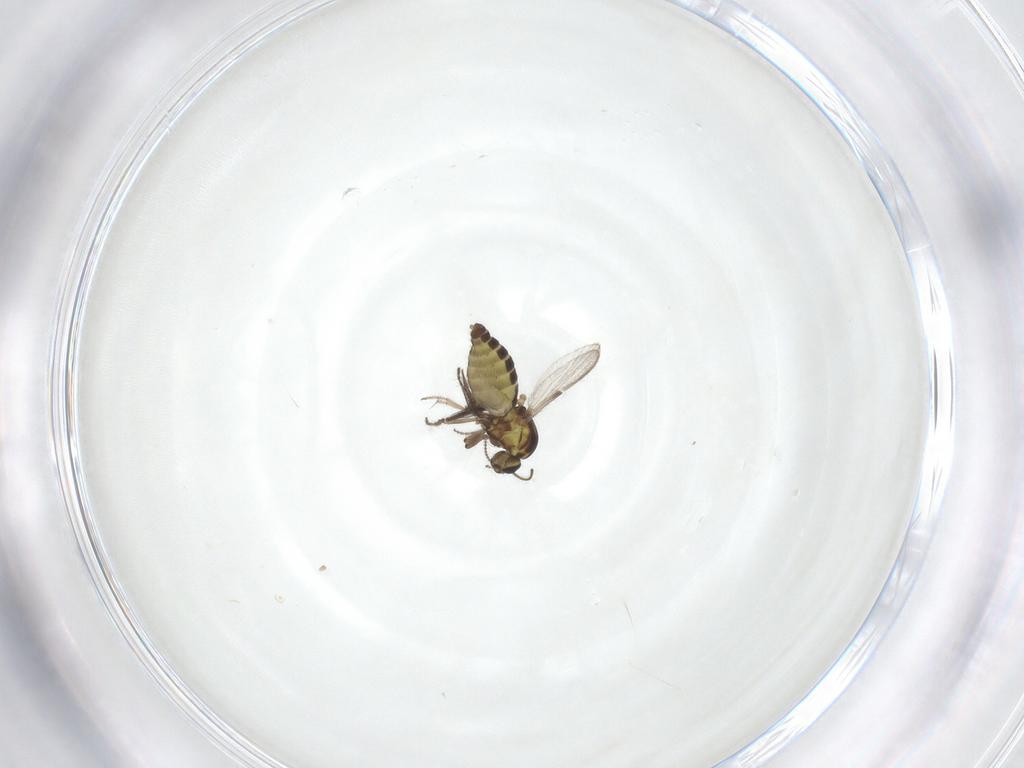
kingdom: Animalia
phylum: Arthropoda
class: Insecta
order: Diptera
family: Ceratopogonidae
